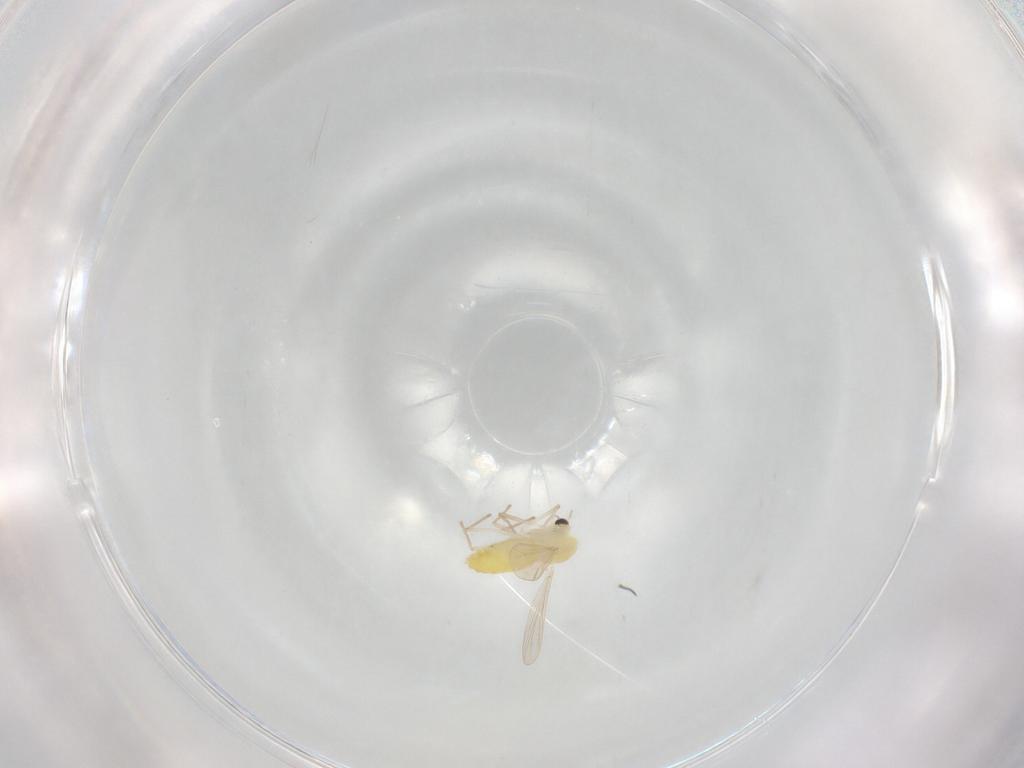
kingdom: Animalia
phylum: Arthropoda
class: Insecta
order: Diptera
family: Chironomidae
